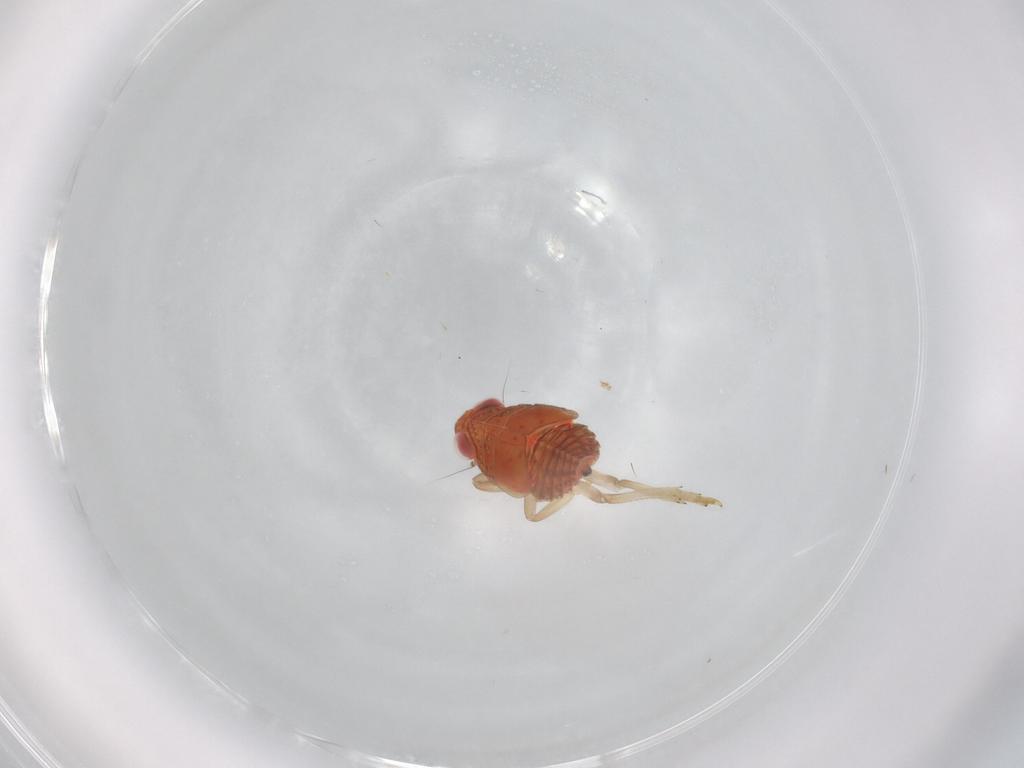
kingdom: Animalia
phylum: Arthropoda
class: Insecta
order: Hemiptera
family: Issidae
